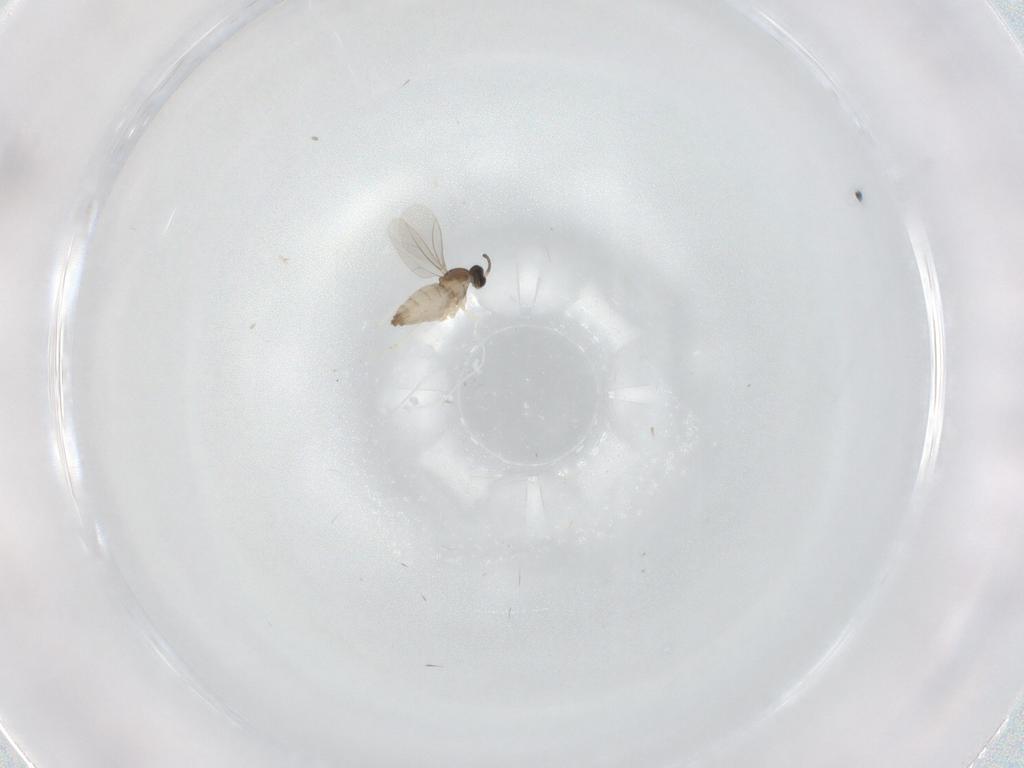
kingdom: Animalia
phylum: Arthropoda
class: Insecta
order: Diptera
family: Cecidomyiidae
